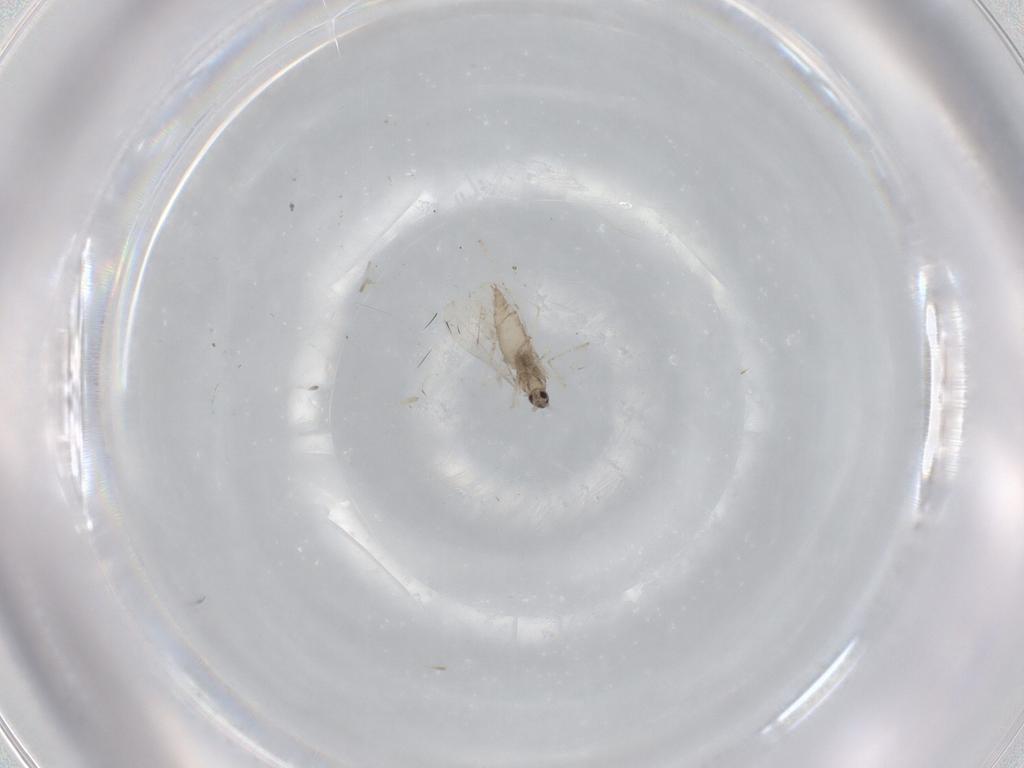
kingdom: Animalia
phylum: Arthropoda
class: Insecta
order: Diptera
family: Cecidomyiidae
